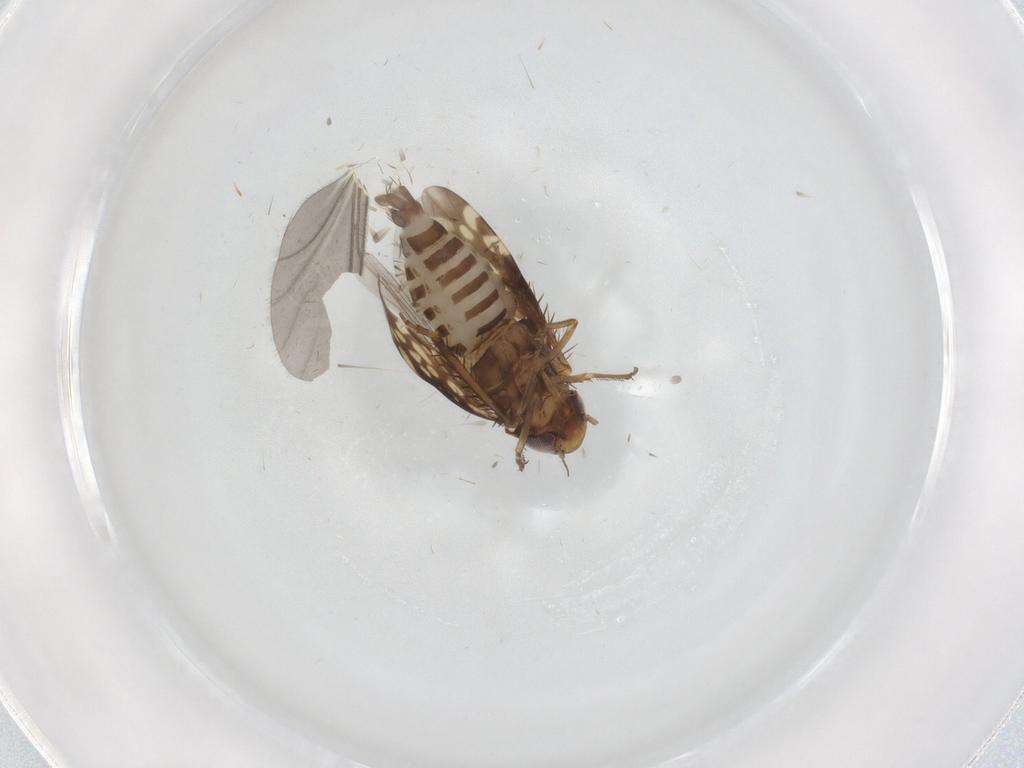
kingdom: Animalia
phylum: Arthropoda
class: Insecta
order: Hemiptera
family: Cicadellidae
